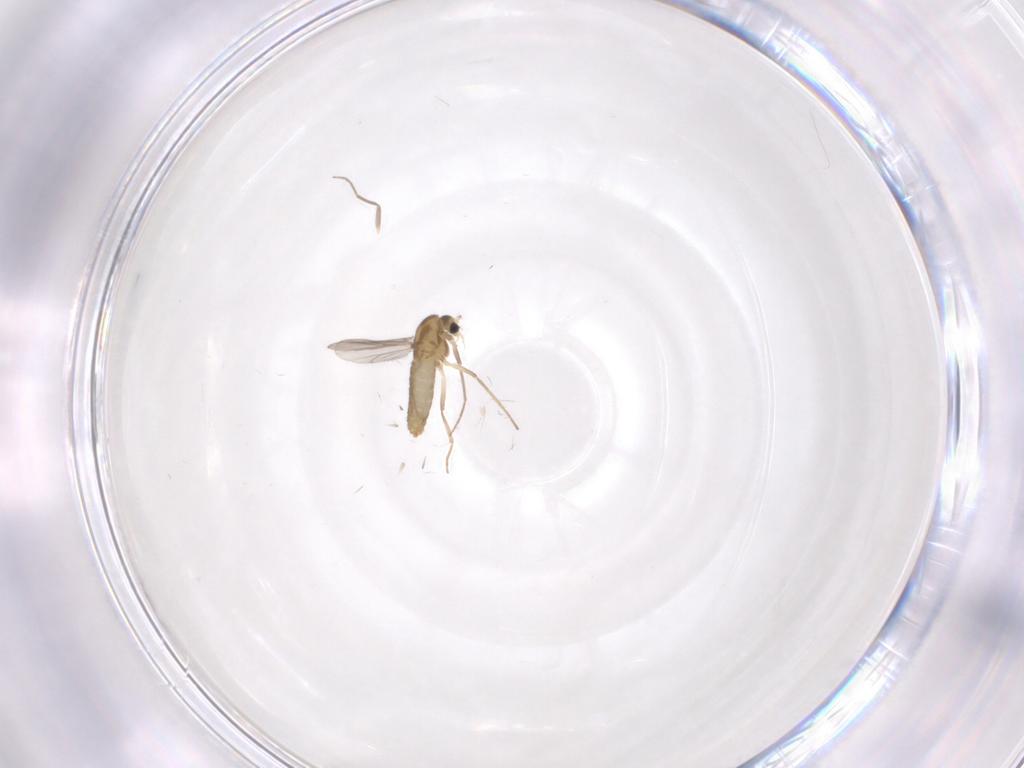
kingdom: Animalia
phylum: Arthropoda
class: Insecta
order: Diptera
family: Chironomidae
